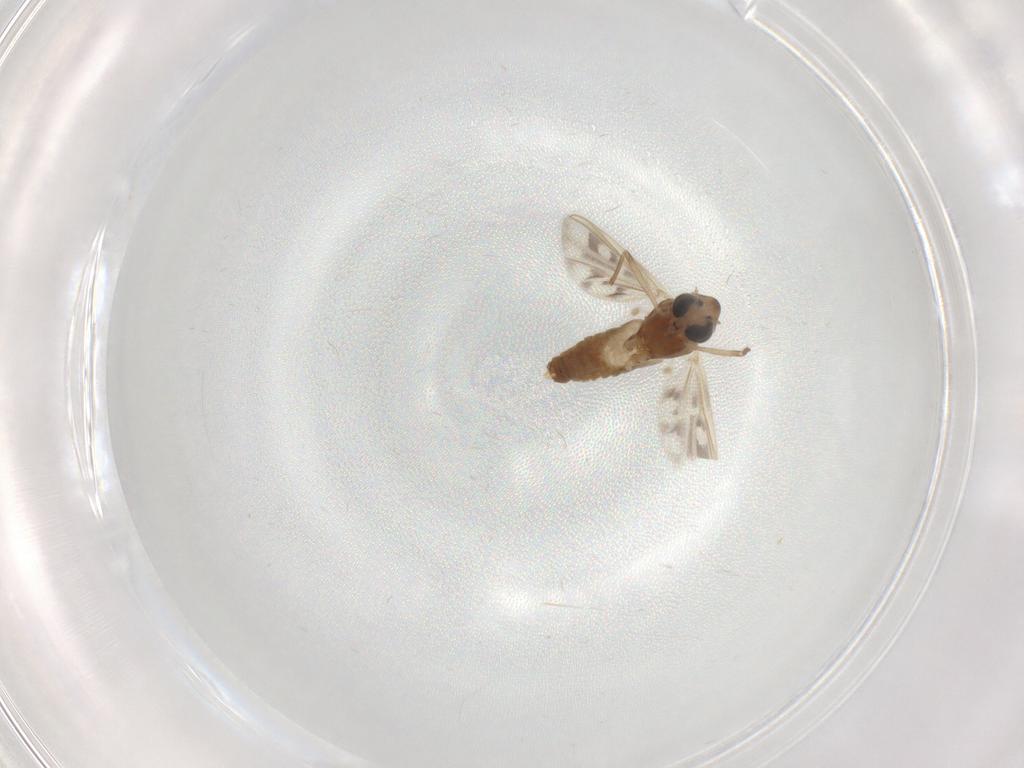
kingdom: Animalia
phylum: Arthropoda
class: Insecta
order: Diptera
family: Chironomidae
